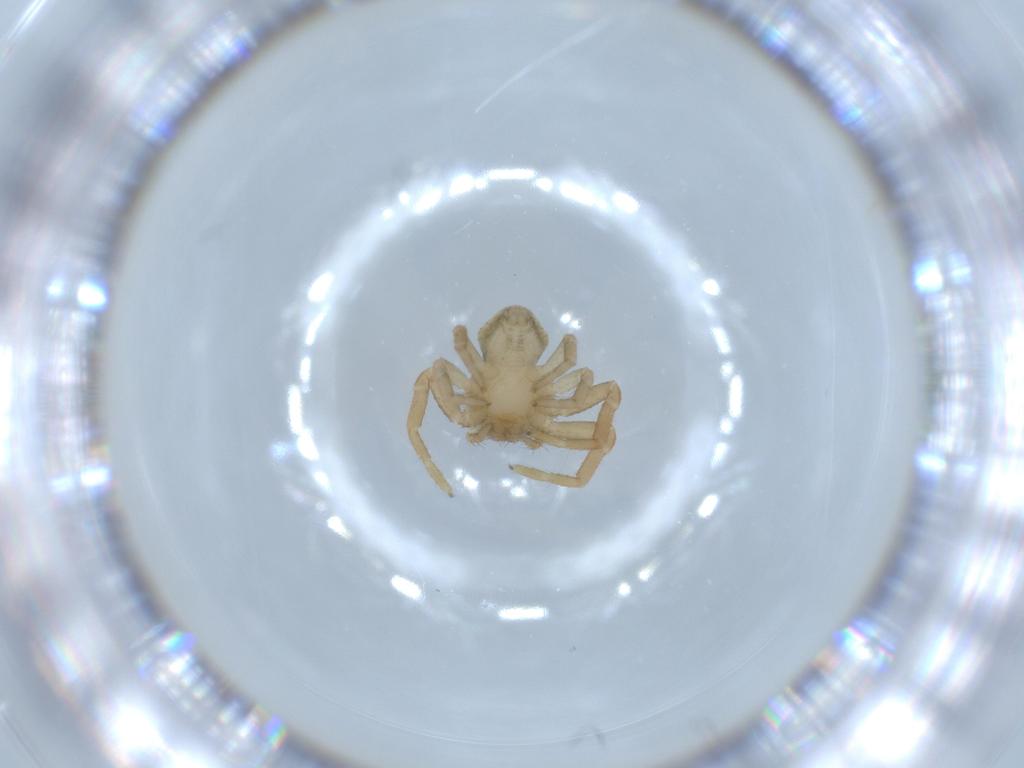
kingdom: Animalia
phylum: Arthropoda
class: Arachnida
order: Araneae
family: Thomisidae
